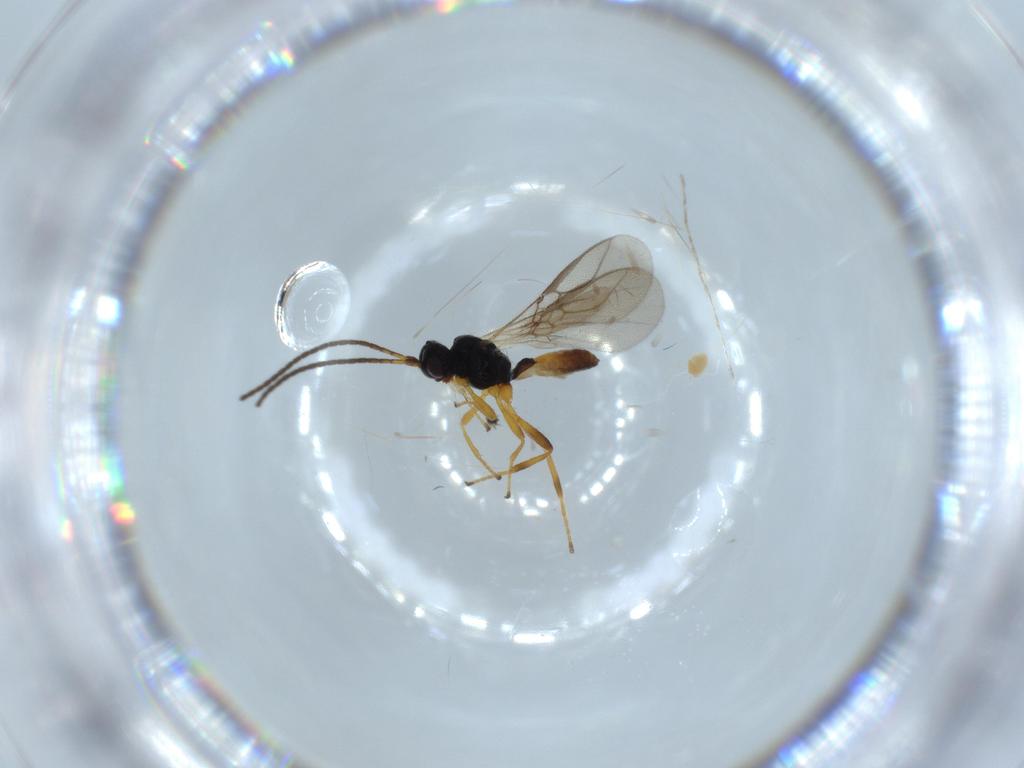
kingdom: Animalia
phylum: Arthropoda
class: Insecta
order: Hymenoptera
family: Braconidae
